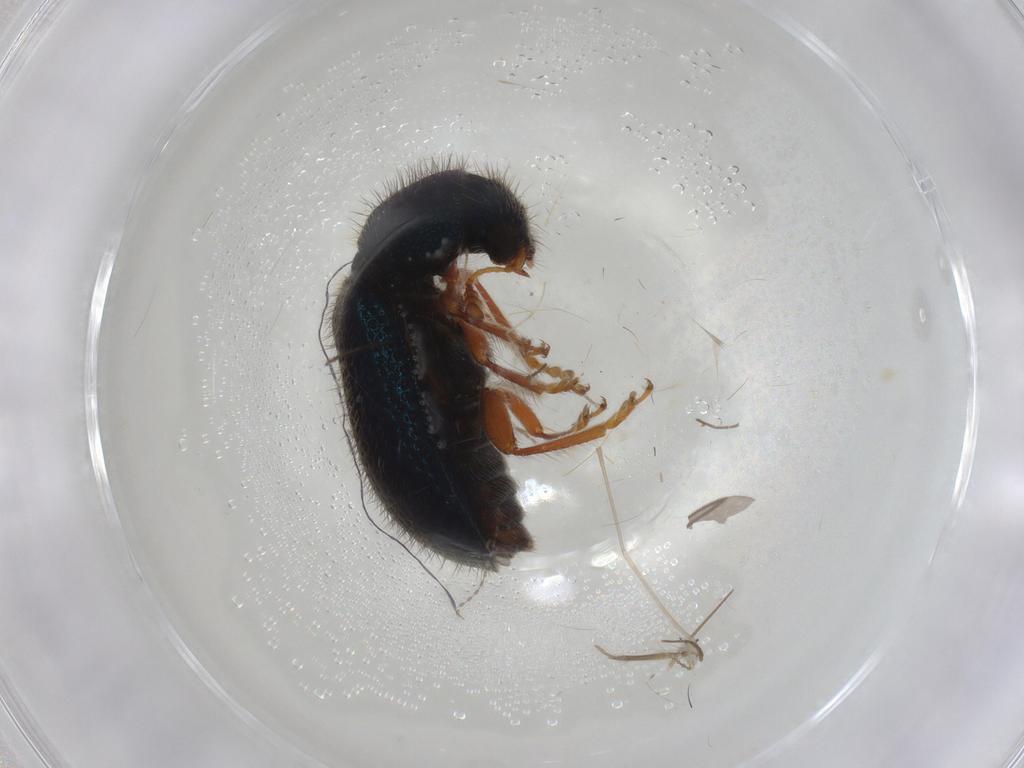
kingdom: Animalia
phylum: Arthropoda
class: Insecta
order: Coleoptera
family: Cleridae
